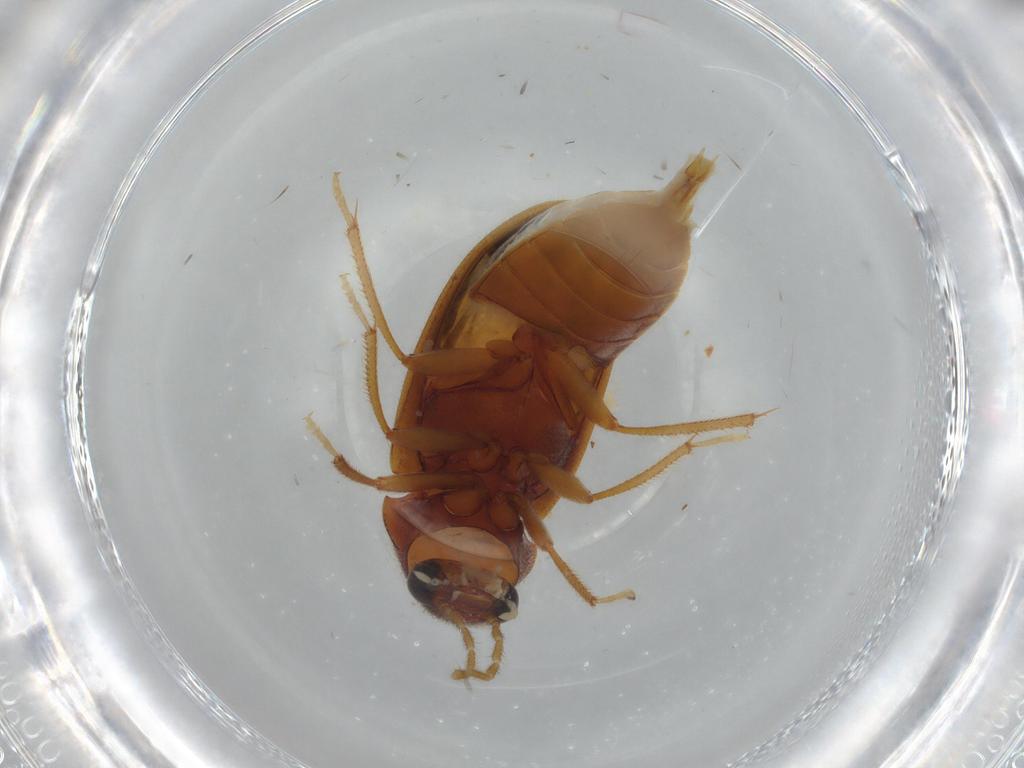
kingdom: Animalia
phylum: Arthropoda
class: Insecta
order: Coleoptera
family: Ptilodactylidae
